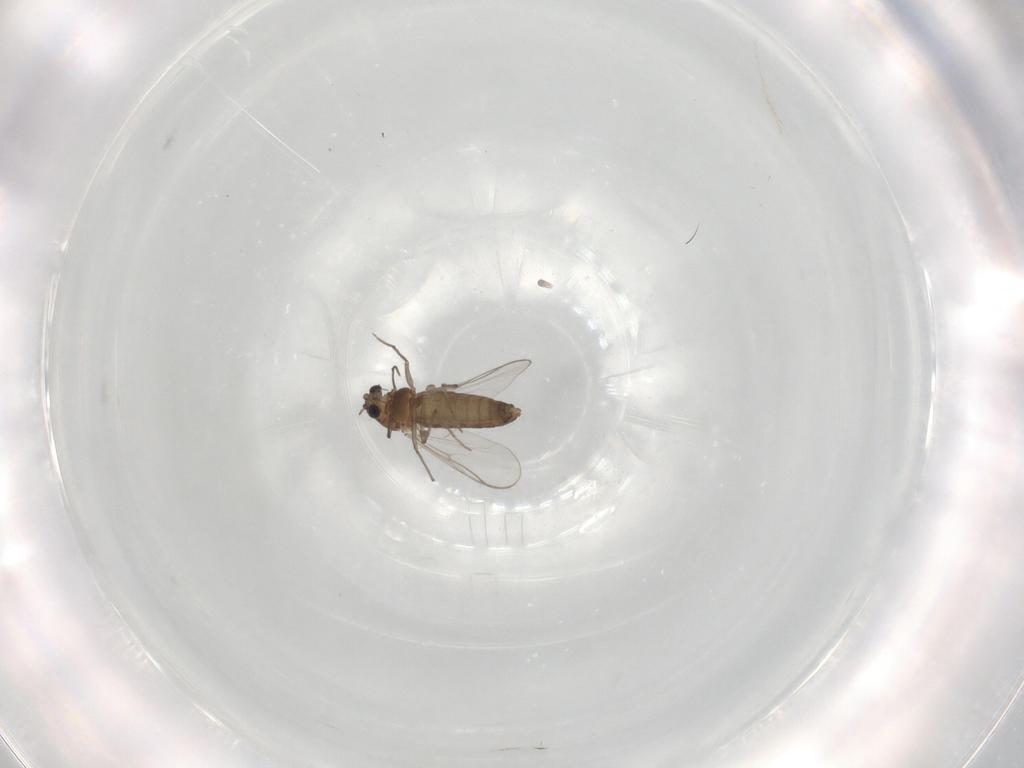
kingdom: Animalia
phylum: Arthropoda
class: Insecta
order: Diptera
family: Chironomidae
